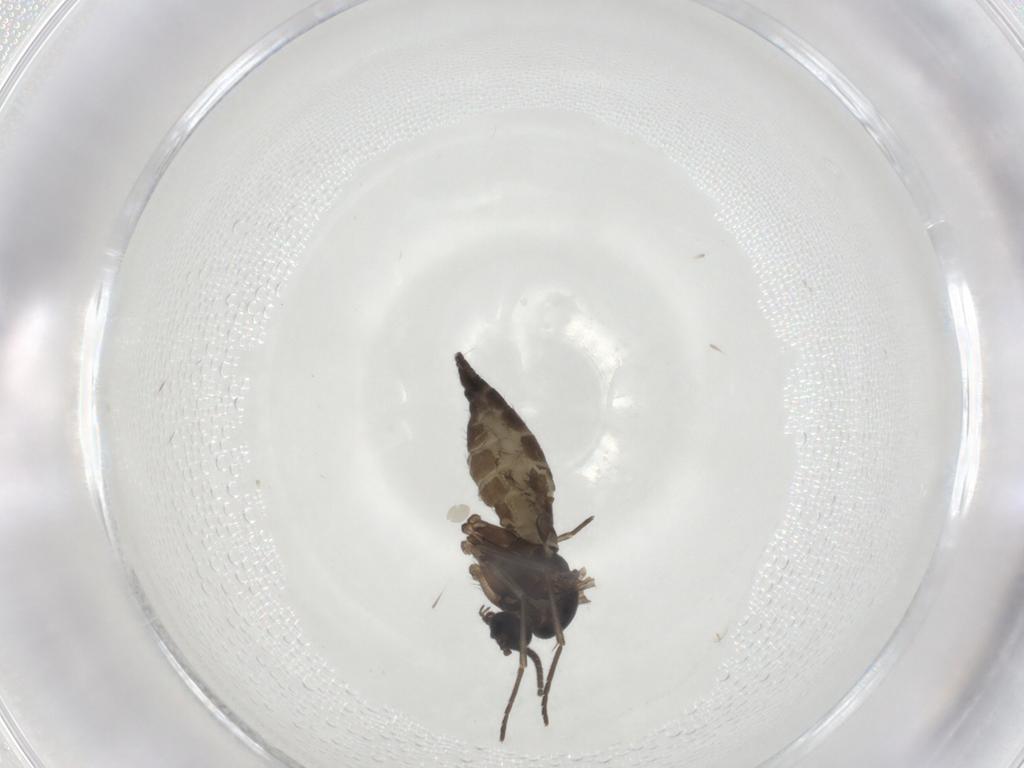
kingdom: Animalia
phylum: Arthropoda
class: Insecta
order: Diptera
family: Sciaridae
